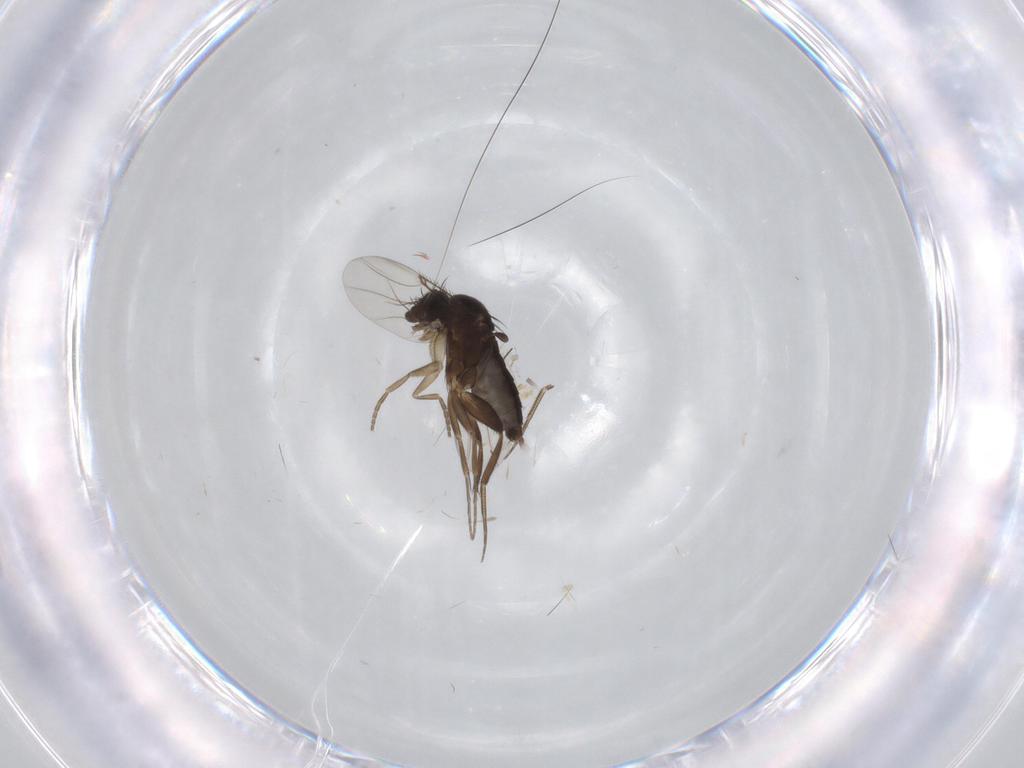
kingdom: Animalia
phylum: Arthropoda
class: Insecta
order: Diptera
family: Phoridae
